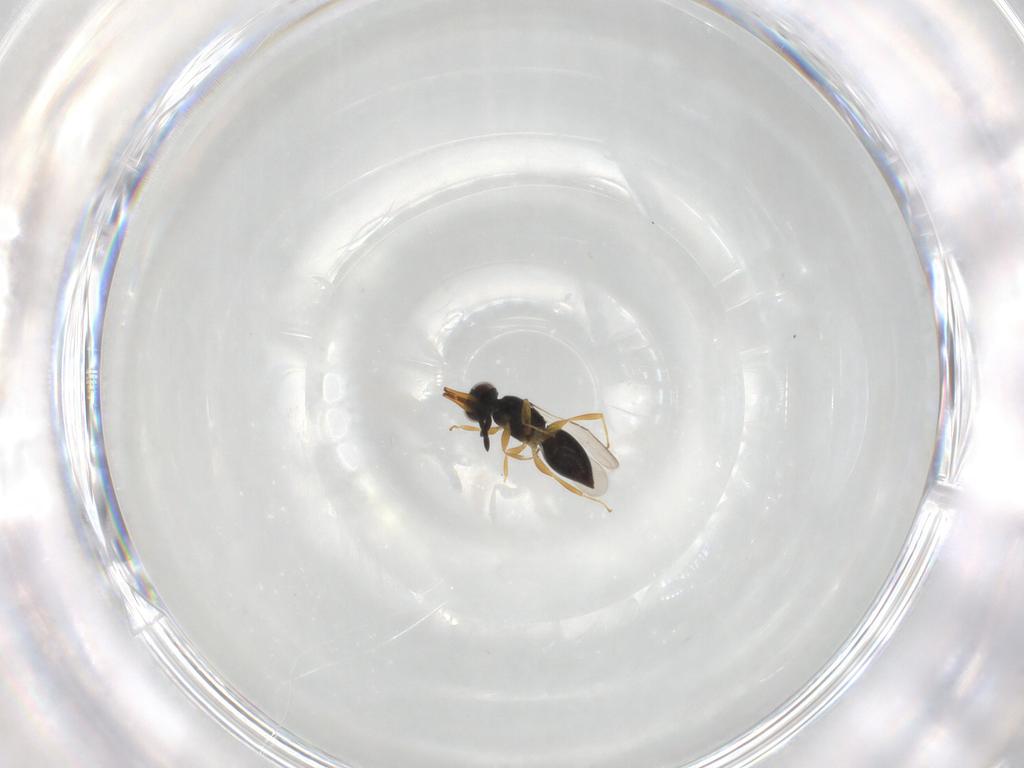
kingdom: Animalia
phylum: Arthropoda
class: Insecta
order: Hymenoptera
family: Ceraphronidae
